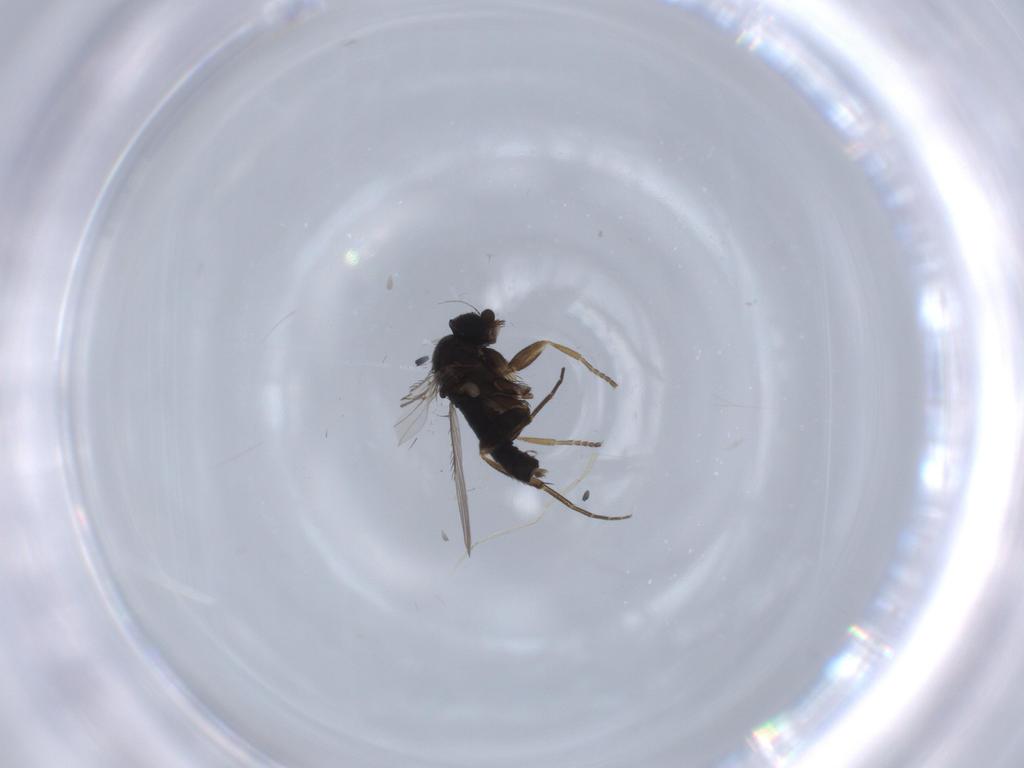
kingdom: Animalia
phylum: Arthropoda
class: Insecta
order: Diptera
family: Phoridae
